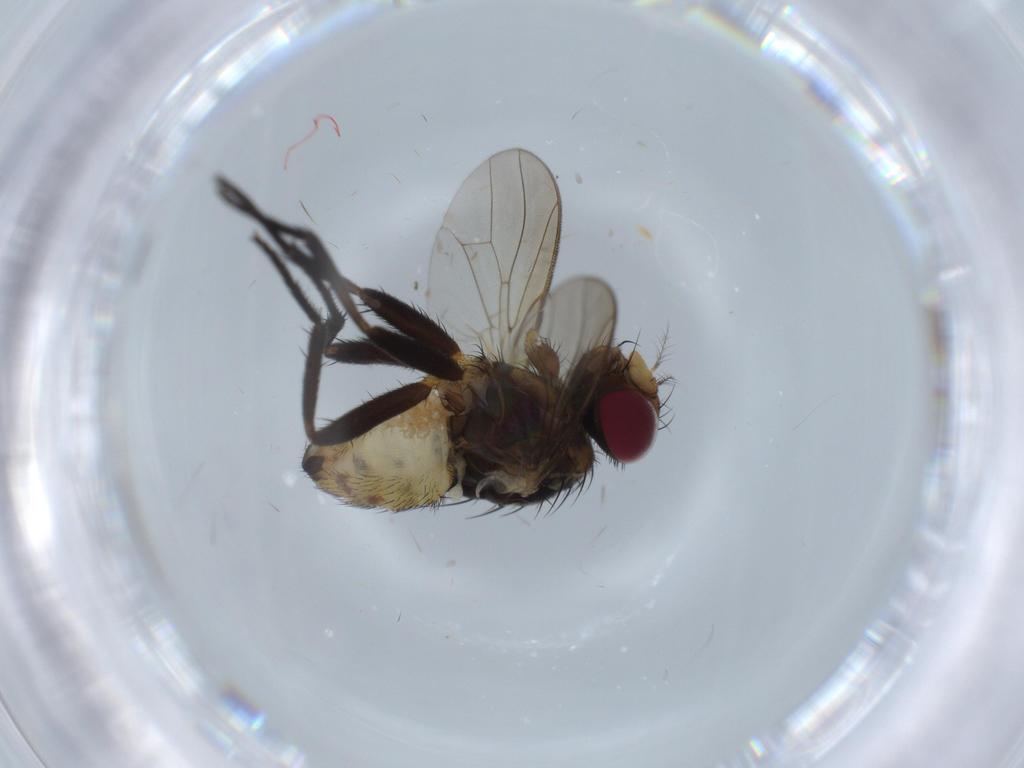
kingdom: Animalia
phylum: Arthropoda
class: Insecta
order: Diptera
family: Anthomyiidae
